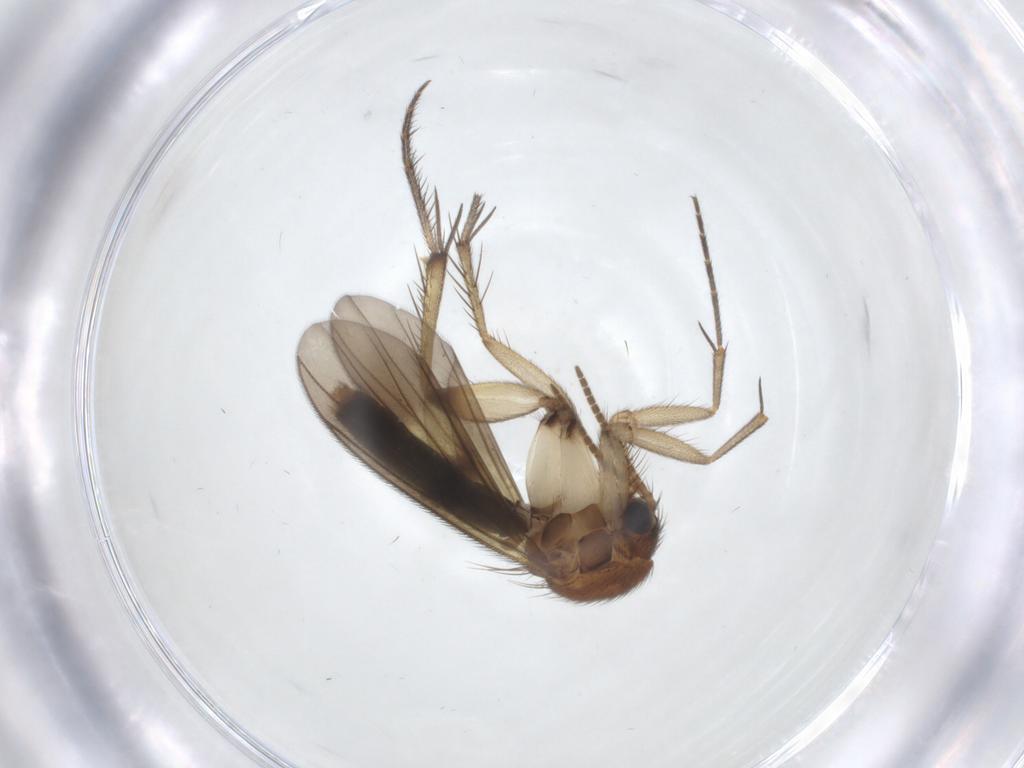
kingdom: Animalia
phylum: Arthropoda
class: Insecta
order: Diptera
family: Mycetophilidae
